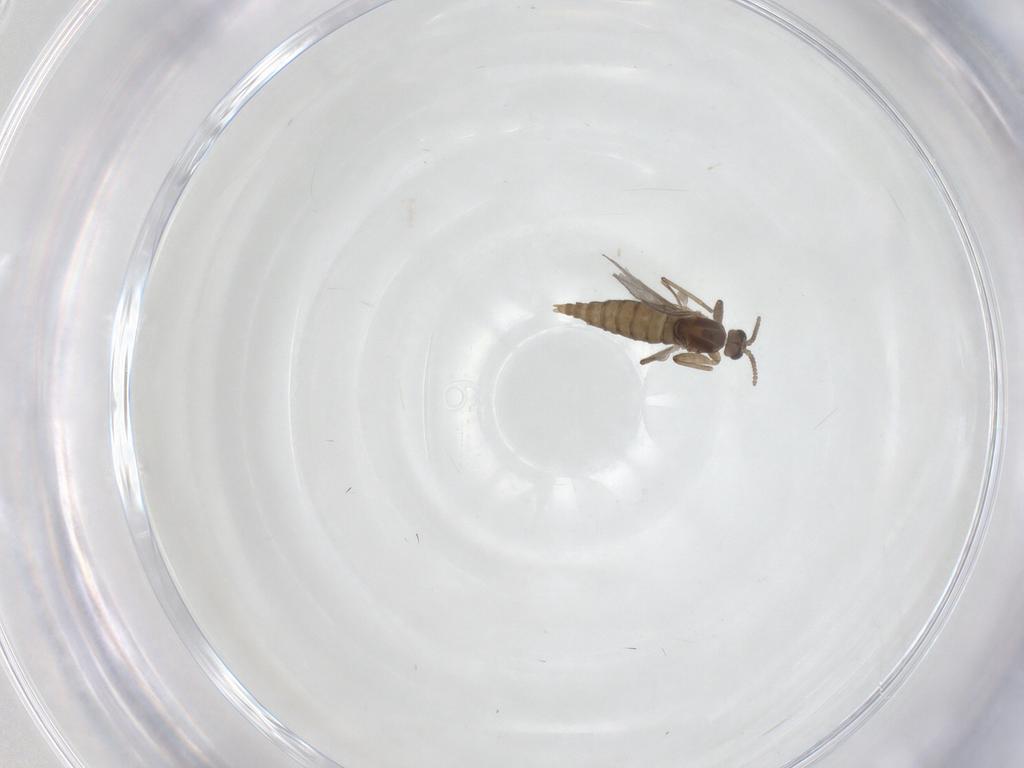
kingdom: Animalia
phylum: Arthropoda
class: Insecta
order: Diptera
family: Cecidomyiidae
